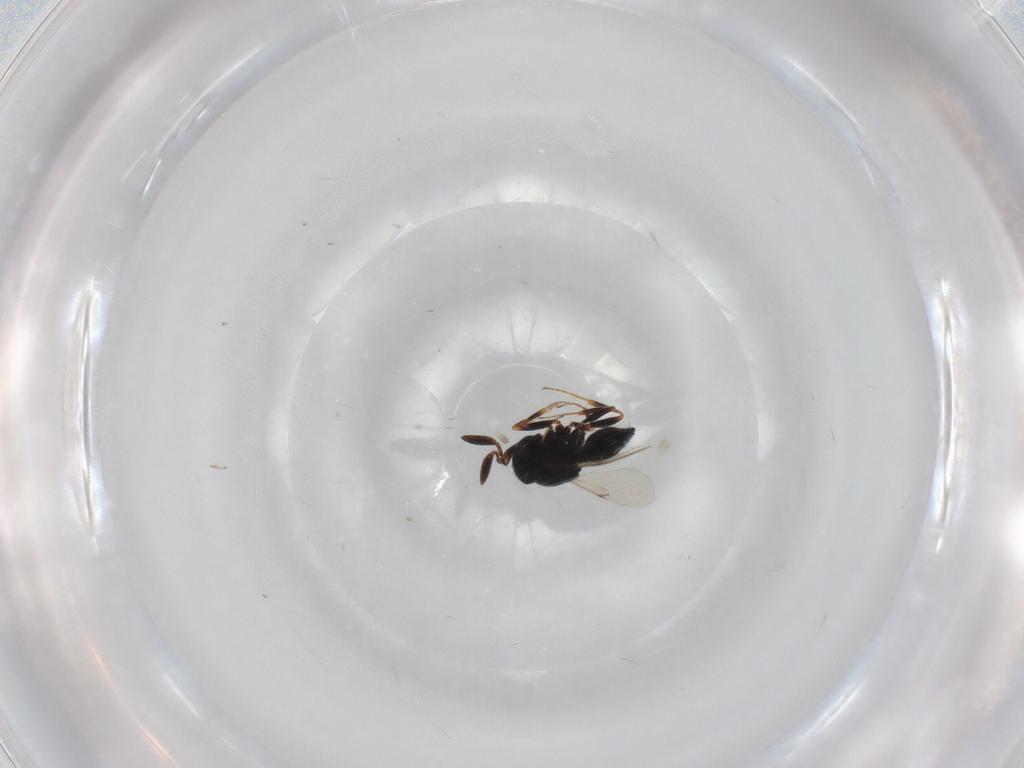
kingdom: Animalia
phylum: Arthropoda
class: Insecta
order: Hymenoptera
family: Scelionidae
